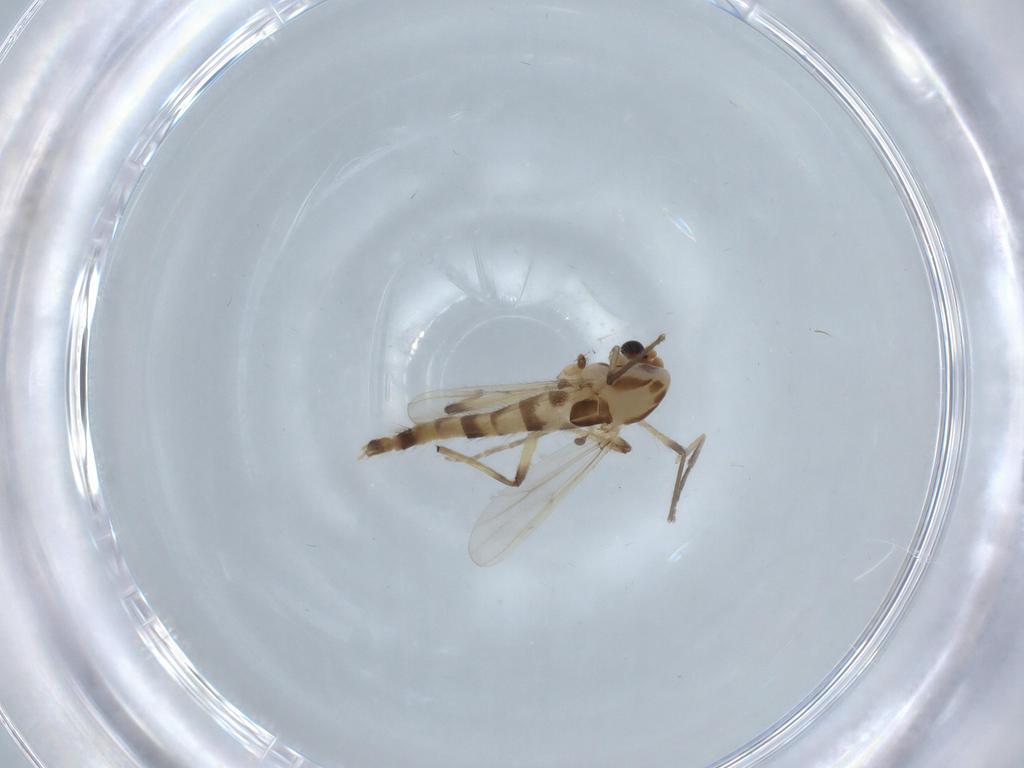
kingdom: Animalia
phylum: Arthropoda
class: Insecta
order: Diptera
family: Chironomidae
